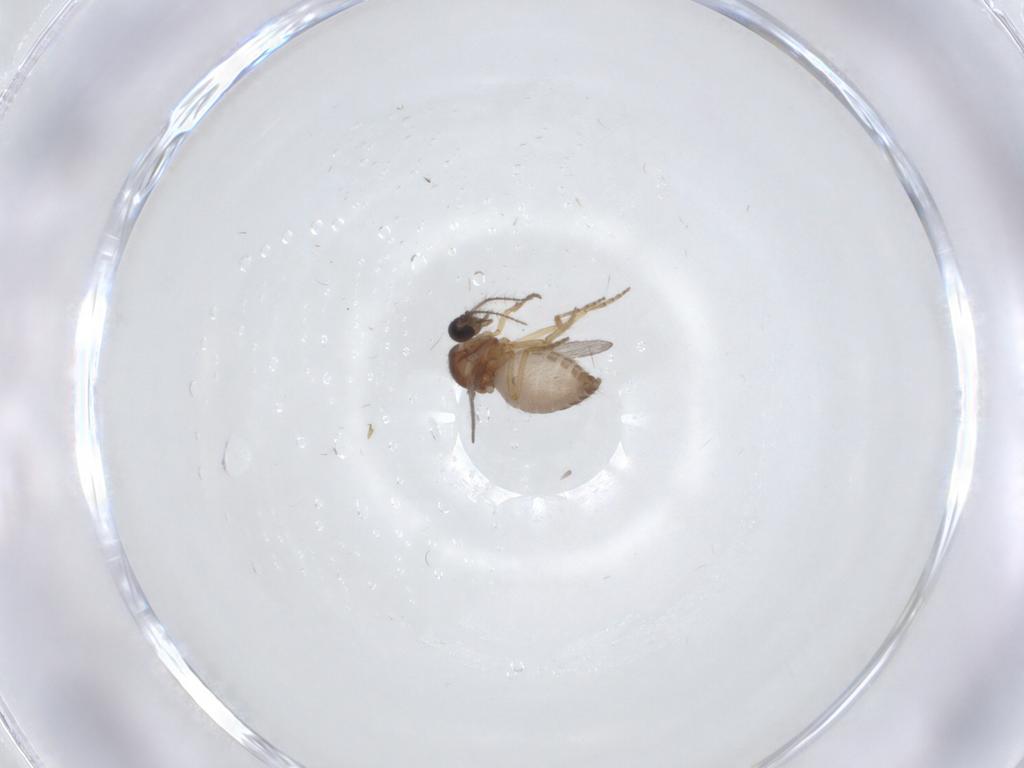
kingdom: Animalia
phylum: Arthropoda
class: Insecta
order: Diptera
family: Ceratopogonidae
